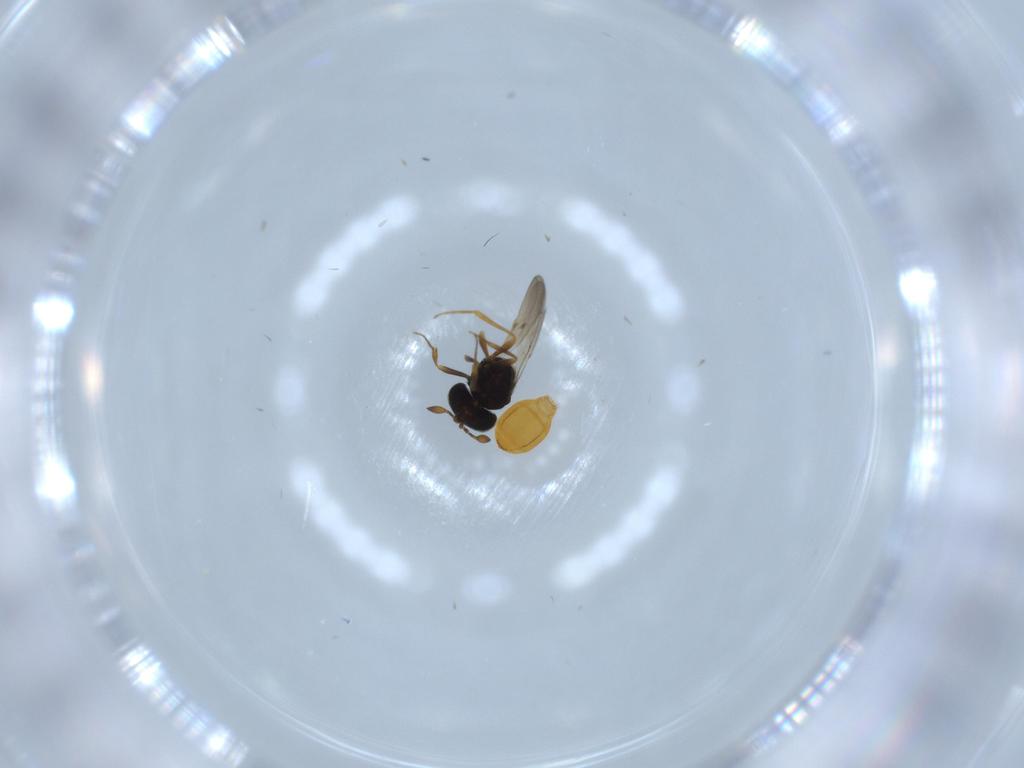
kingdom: Animalia
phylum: Arthropoda
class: Insecta
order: Hymenoptera
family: Scelionidae
